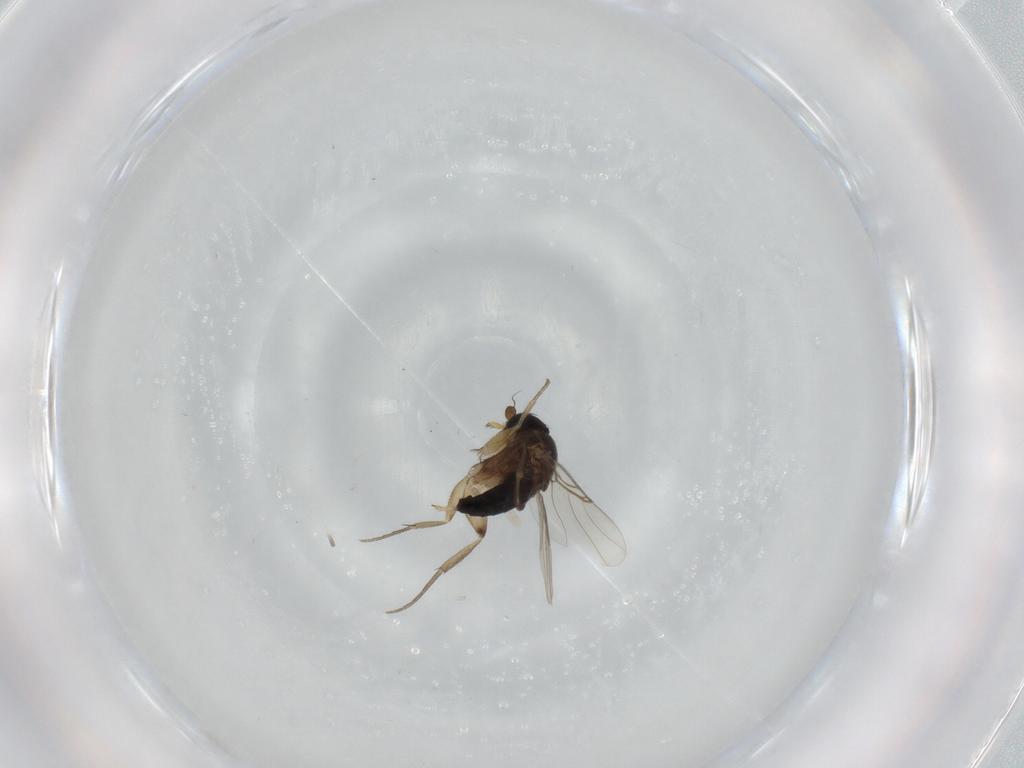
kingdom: Animalia
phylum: Arthropoda
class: Insecta
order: Diptera
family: Phoridae
